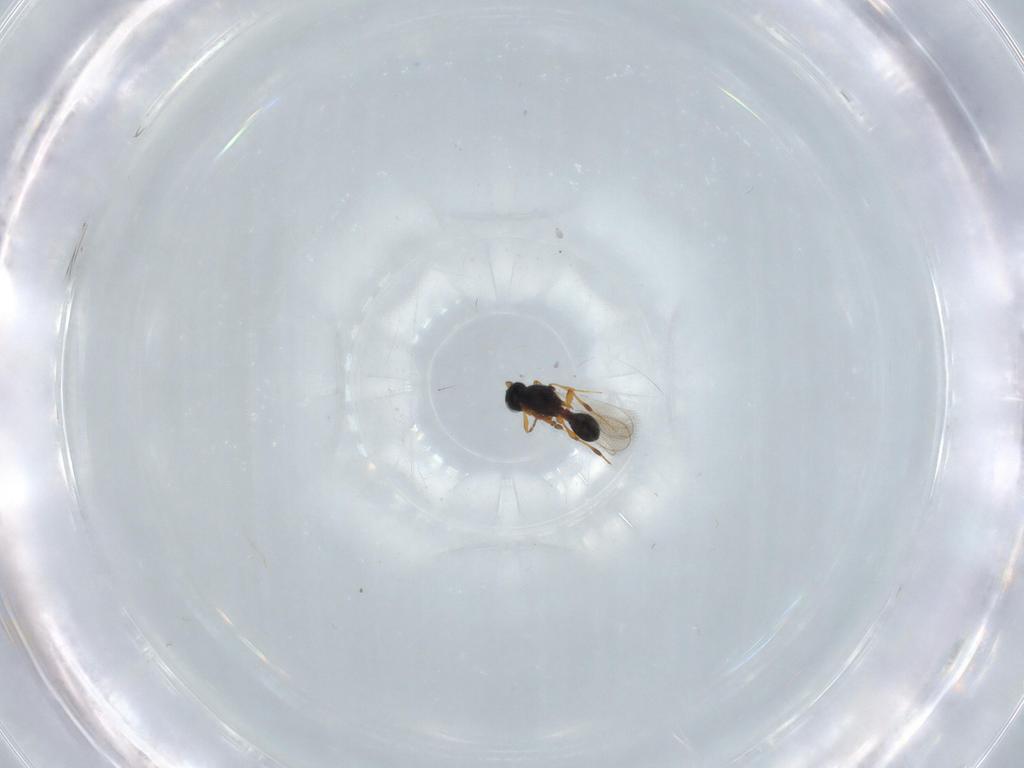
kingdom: Animalia
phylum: Arthropoda
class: Insecta
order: Hymenoptera
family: Platygastridae
